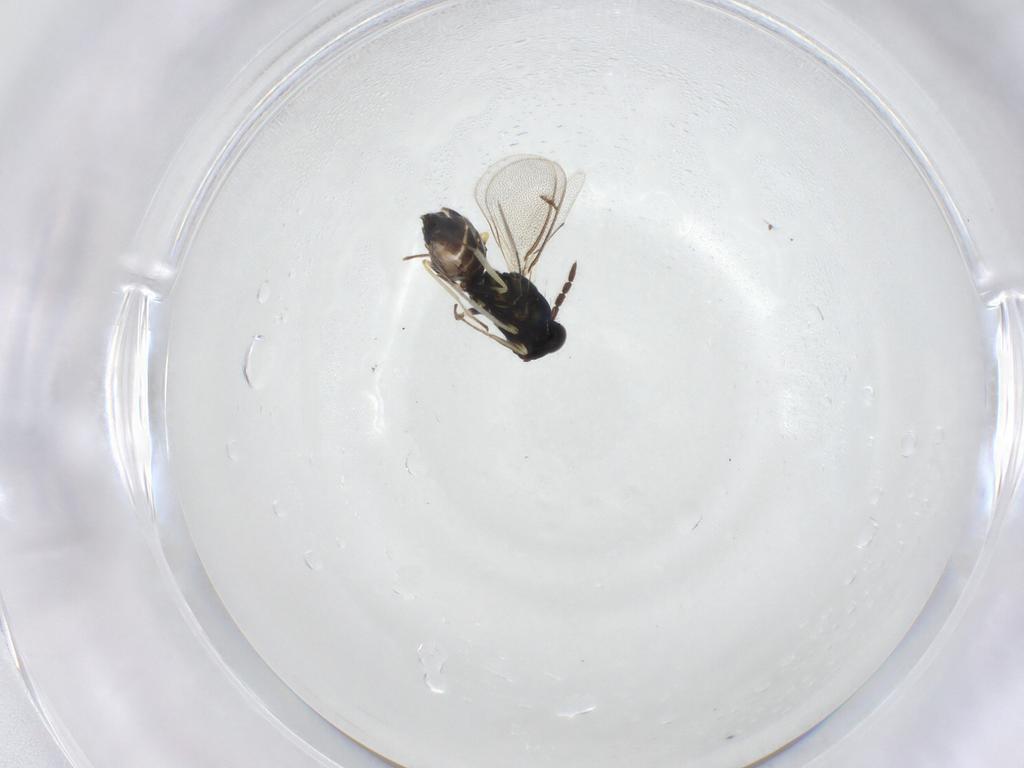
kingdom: Animalia
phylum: Arthropoda
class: Insecta
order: Hymenoptera
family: Eulophidae
